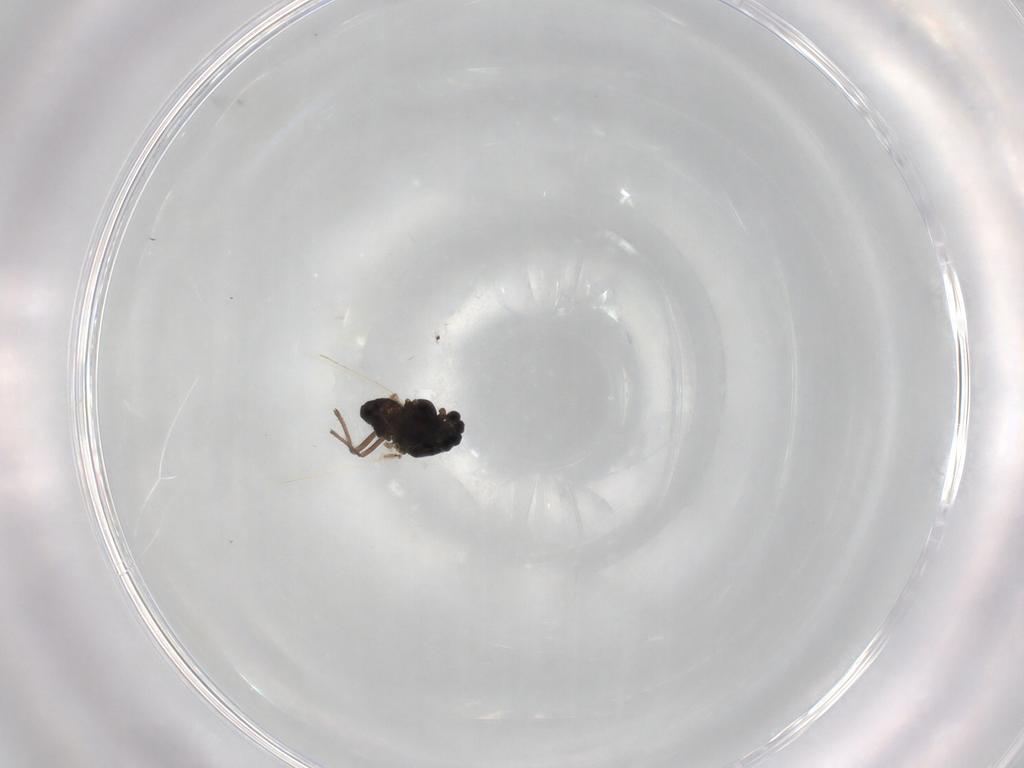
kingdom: Animalia
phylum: Arthropoda
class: Insecta
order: Diptera
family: Chironomidae
